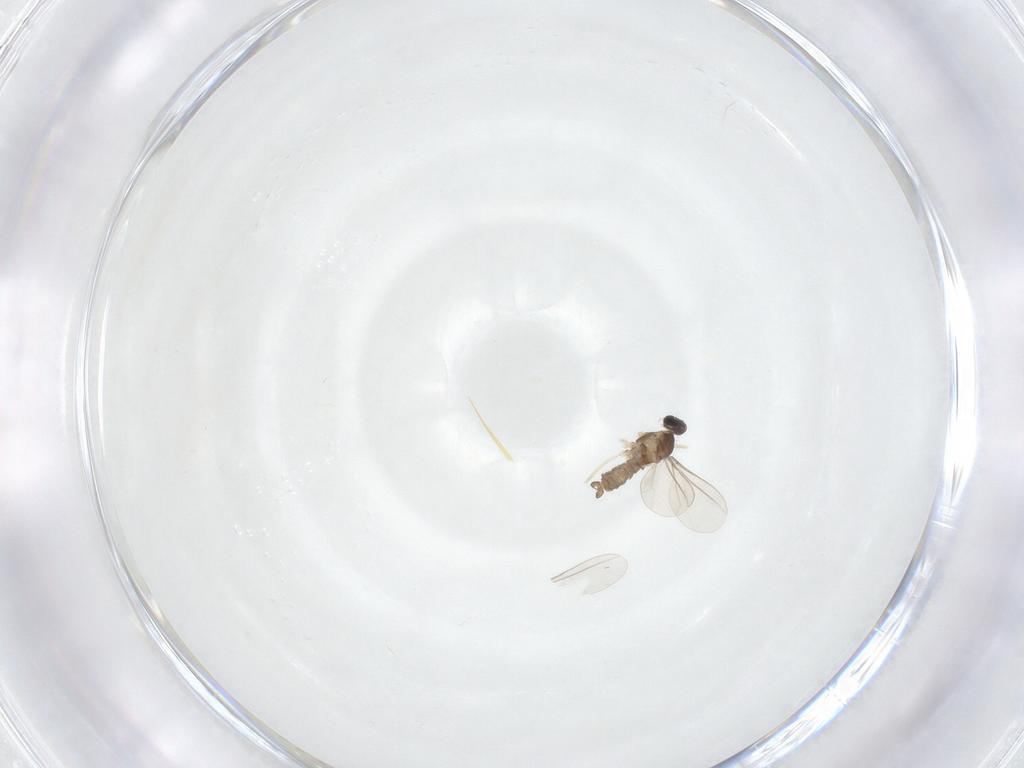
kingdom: Animalia
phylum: Arthropoda
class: Insecta
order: Diptera
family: Cecidomyiidae
